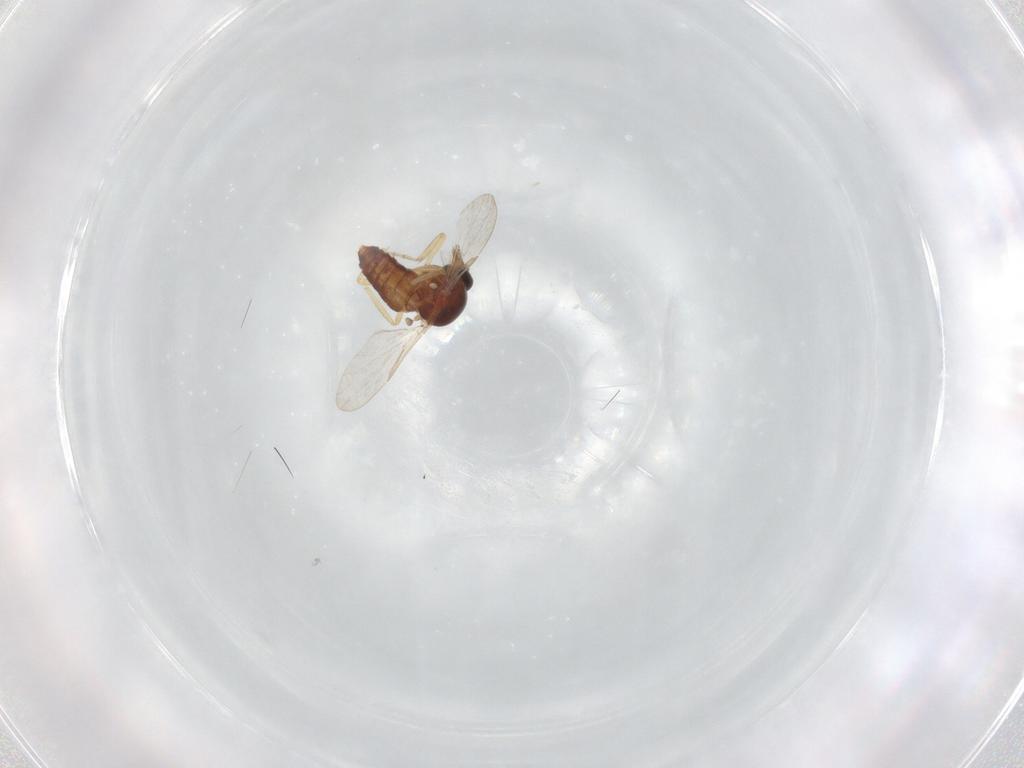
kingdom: Animalia
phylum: Arthropoda
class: Insecta
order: Diptera
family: Ceratopogonidae
